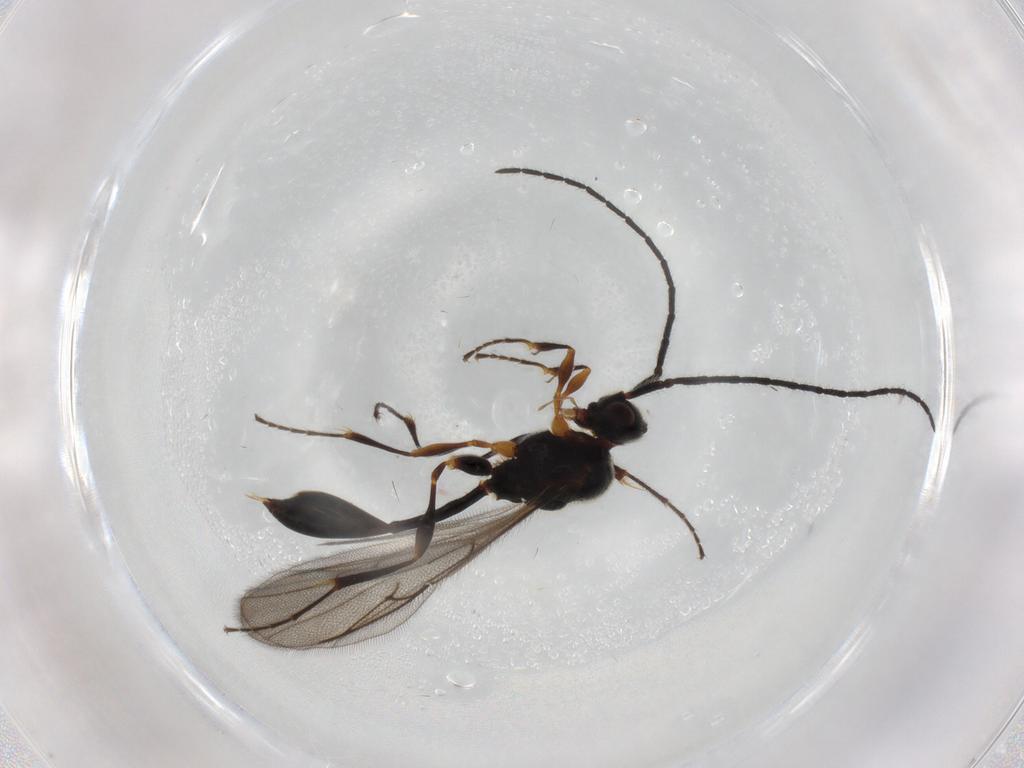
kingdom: Animalia
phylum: Arthropoda
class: Insecta
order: Hymenoptera
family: Diapriidae
